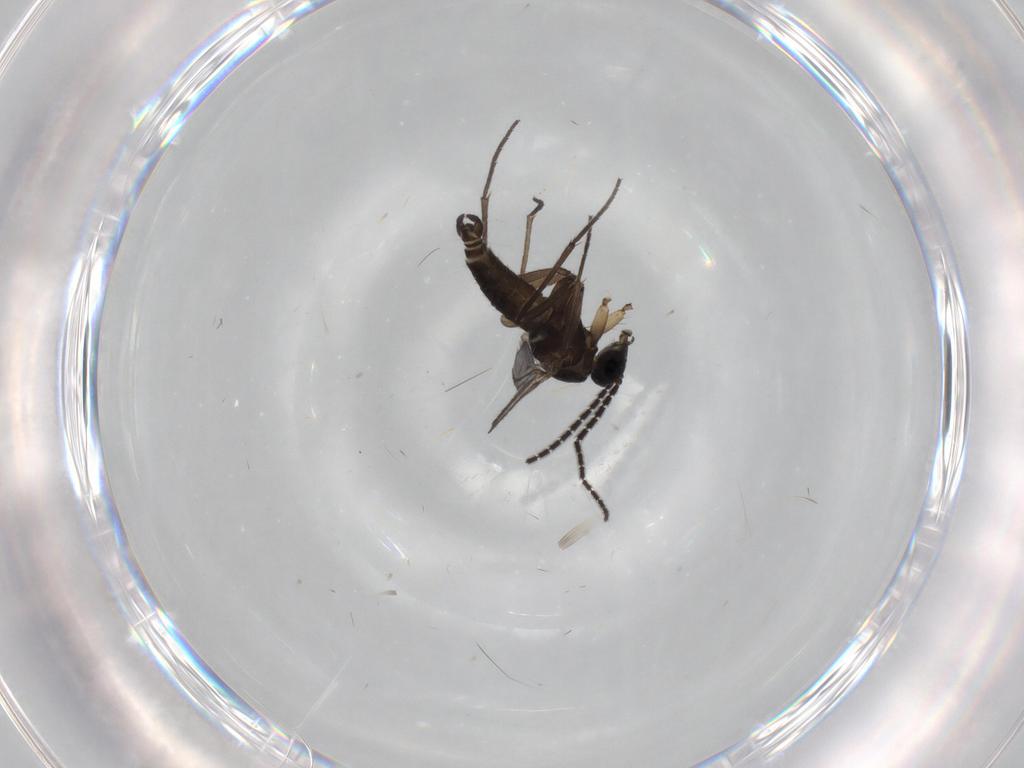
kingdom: Animalia
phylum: Arthropoda
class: Insecta
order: Diptera
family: Sciaridae
